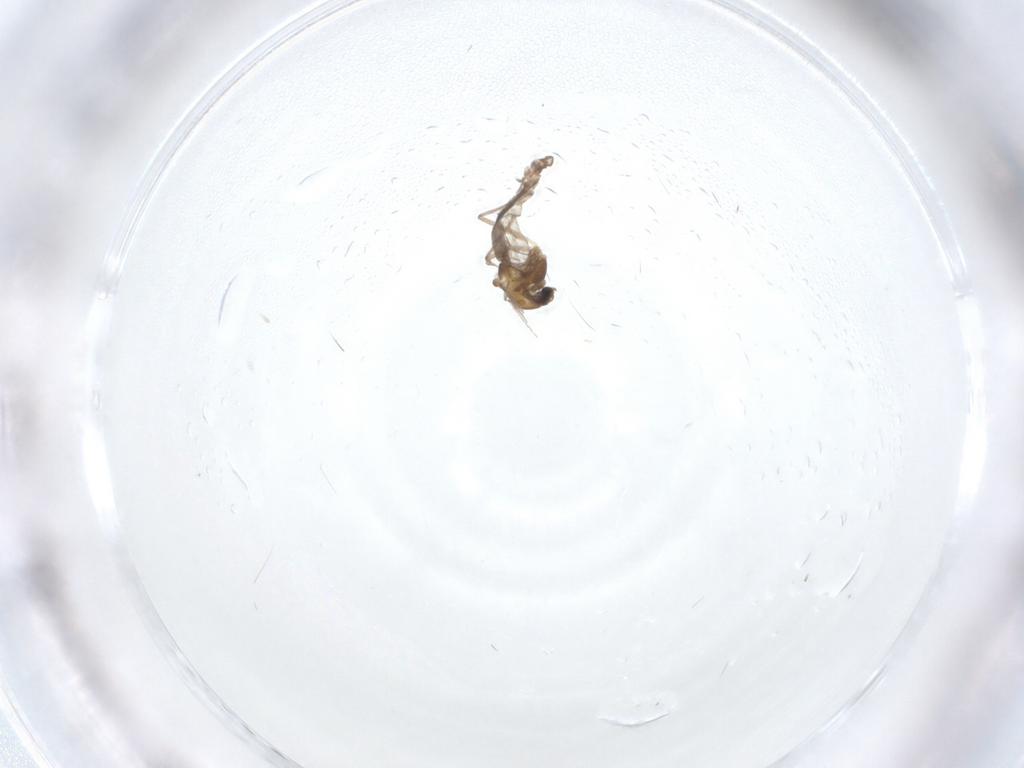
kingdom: Animalia
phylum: Arthropoda
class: Insecta
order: Diptera
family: Chironomidae
